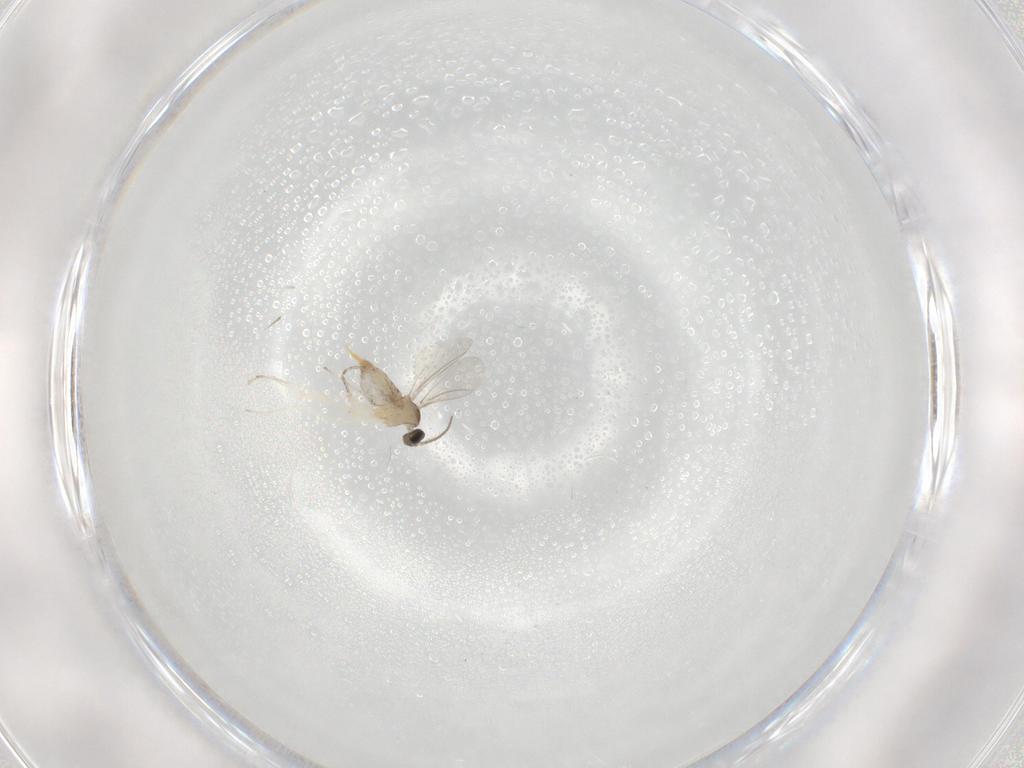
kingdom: Animalia
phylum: Arthropoda
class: Insecta
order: Diptera
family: Cecidomyiidae
